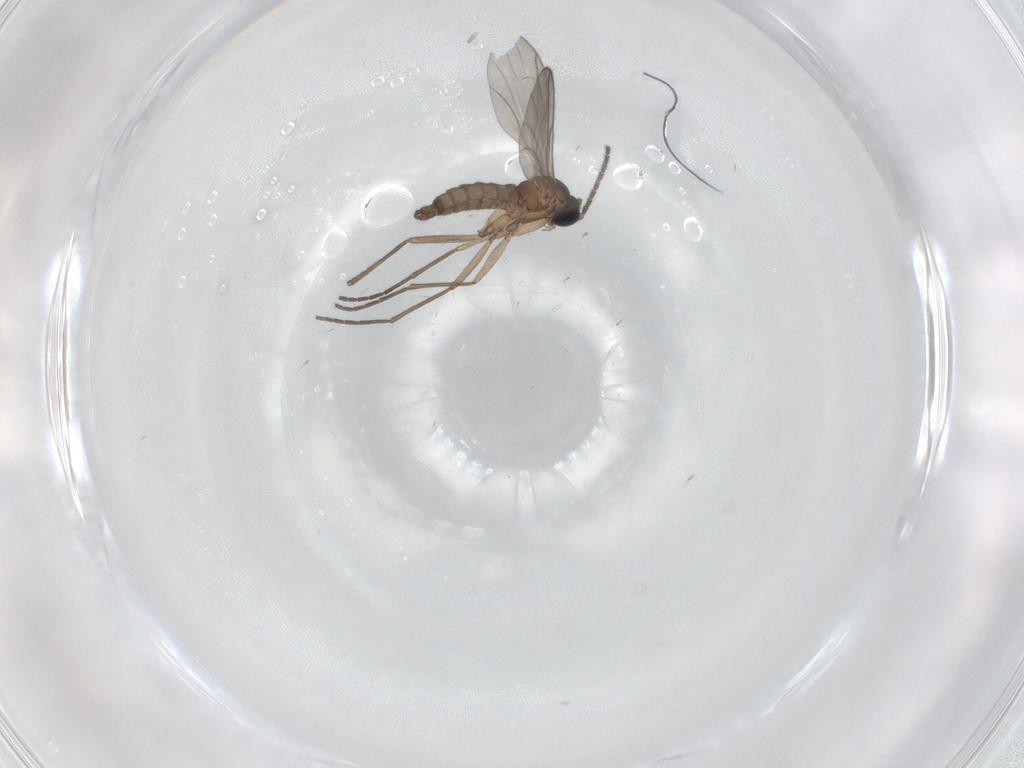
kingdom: Animalia
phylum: Arthropoda
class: Insecta
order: Diptera
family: Sciaridae
